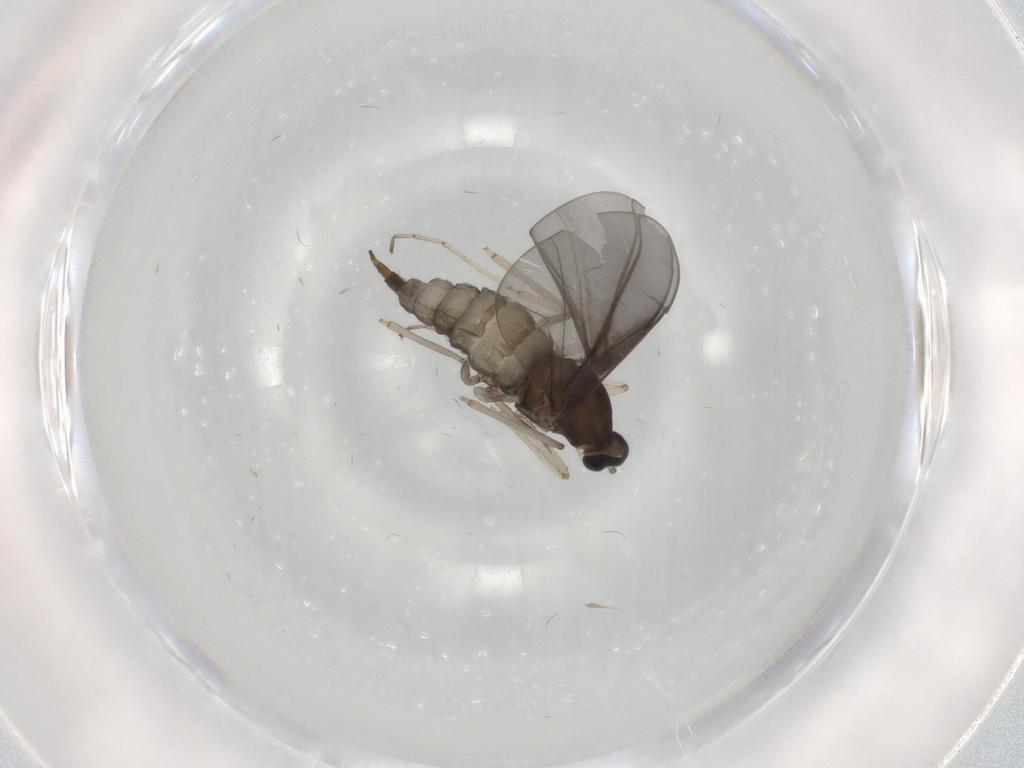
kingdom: Animalia
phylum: Arthropoda
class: Insecta
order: Diptera
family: Cecidomyiidae
